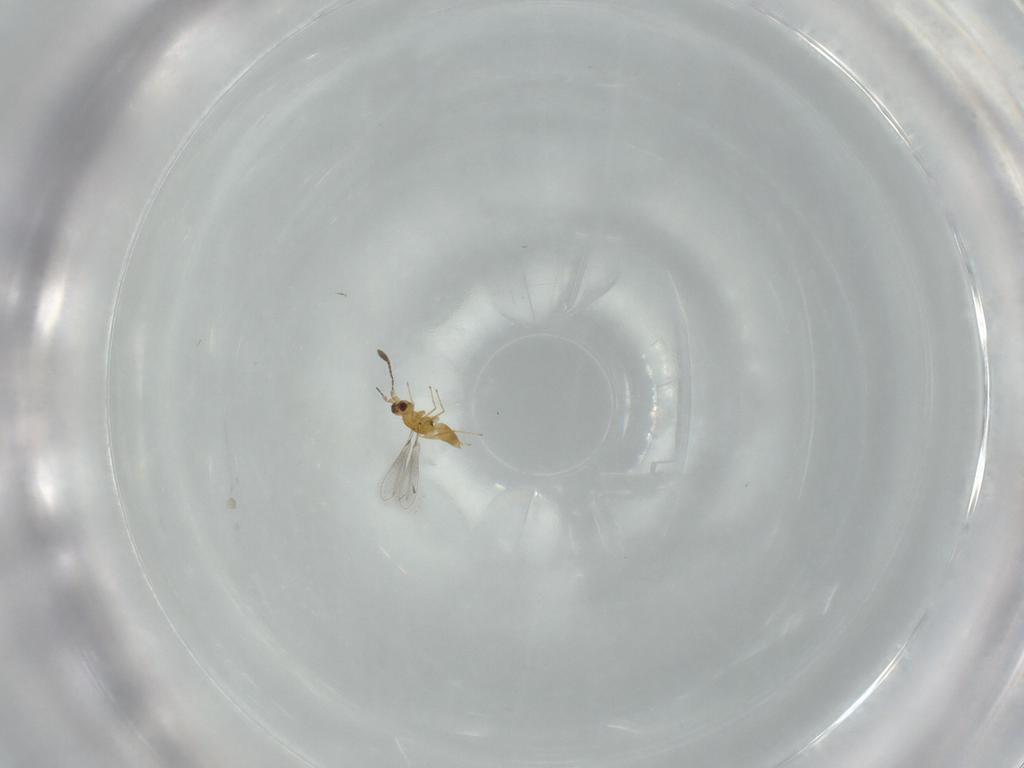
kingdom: Animalia
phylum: Arthropoda
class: Insecta
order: Hymenoptera
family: Mymaridae
